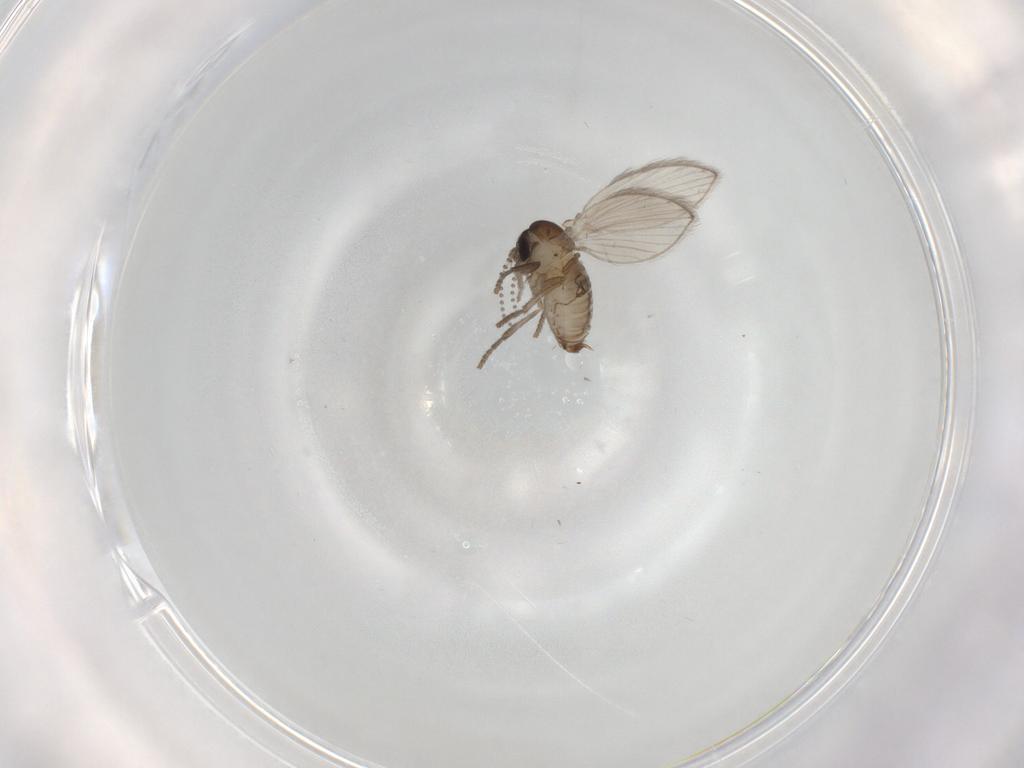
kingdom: Animalia
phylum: Arthropoda
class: Insecta
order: Diptera
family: Psychodidae
